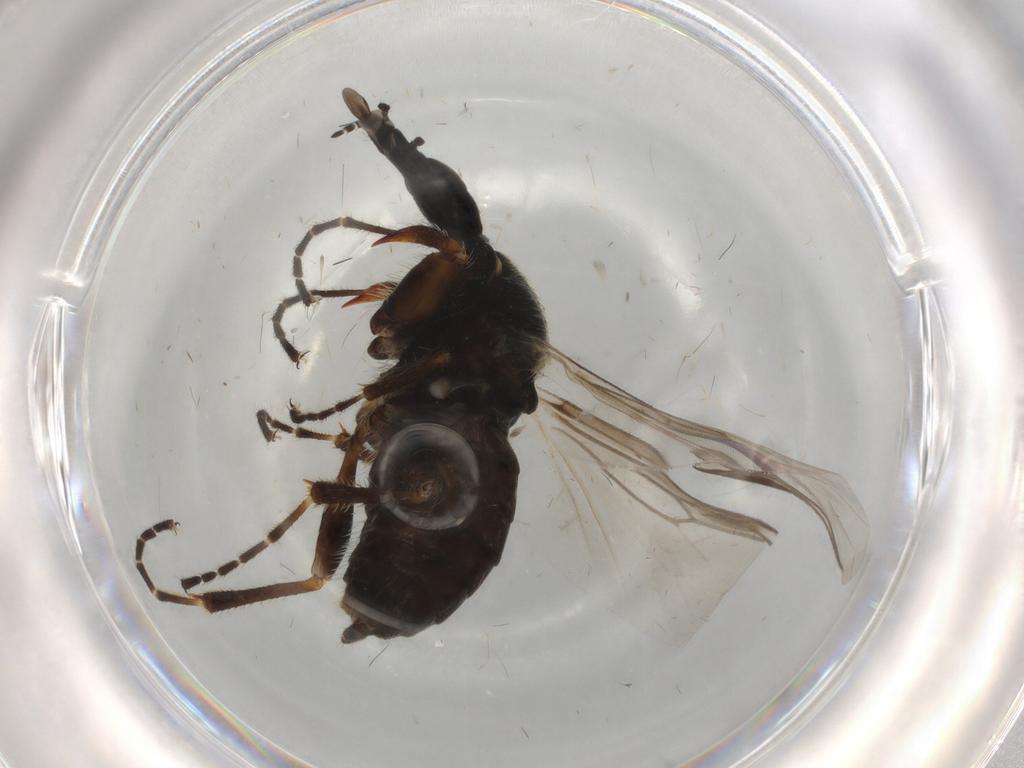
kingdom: Animalia
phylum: Arthropoda
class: Insecta
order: Diptera
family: Bibionidae
